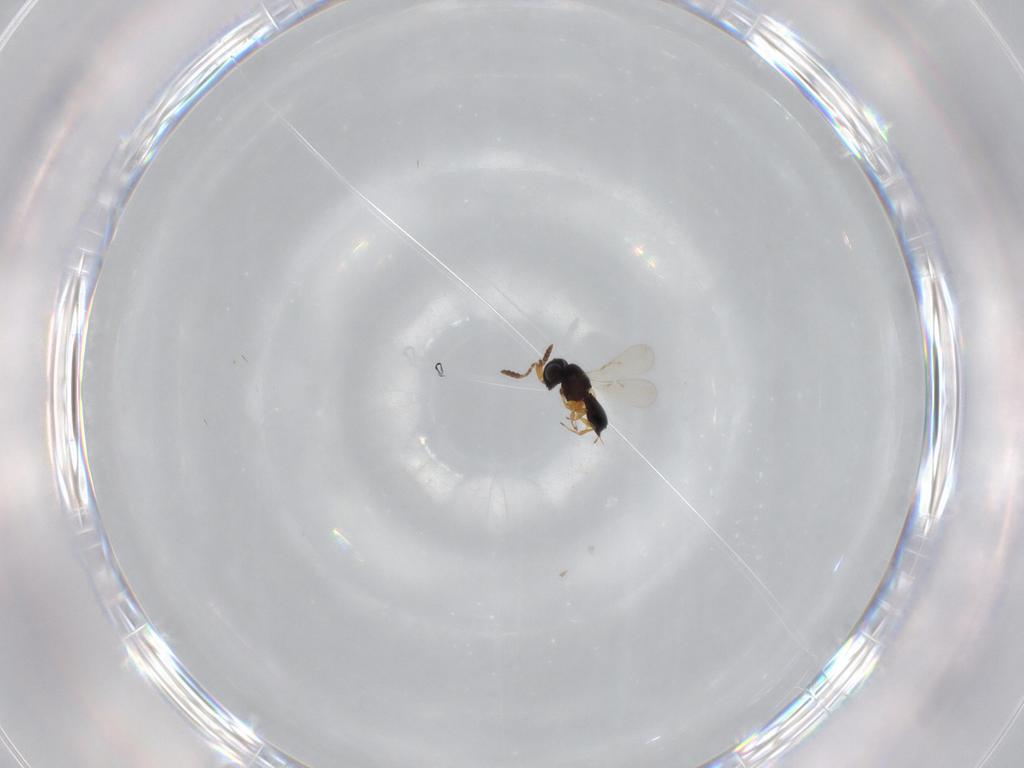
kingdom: Animalia
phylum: Arthropoda
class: Insecta
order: Hymenoptera
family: Scelionidae
